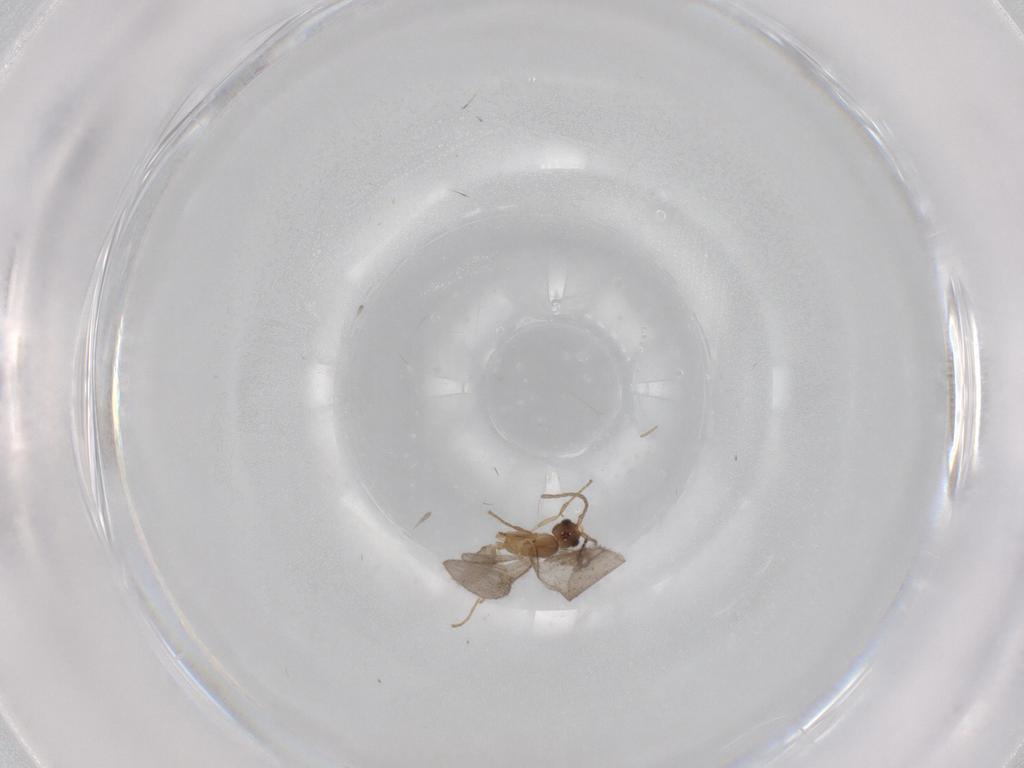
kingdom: Animalia
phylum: Arthropoda
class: Insecta
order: Hymenoptera
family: Formicidae
